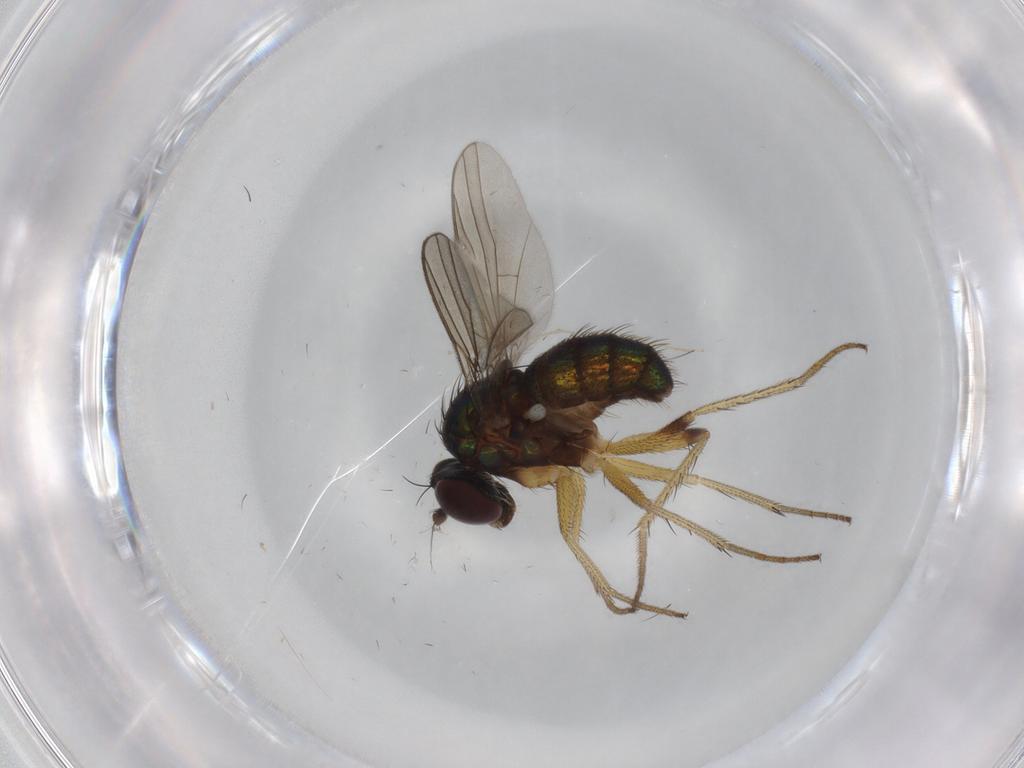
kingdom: Animalia
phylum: Arthropoda
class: Insecta
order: Diptera
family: Dolichopodidae
